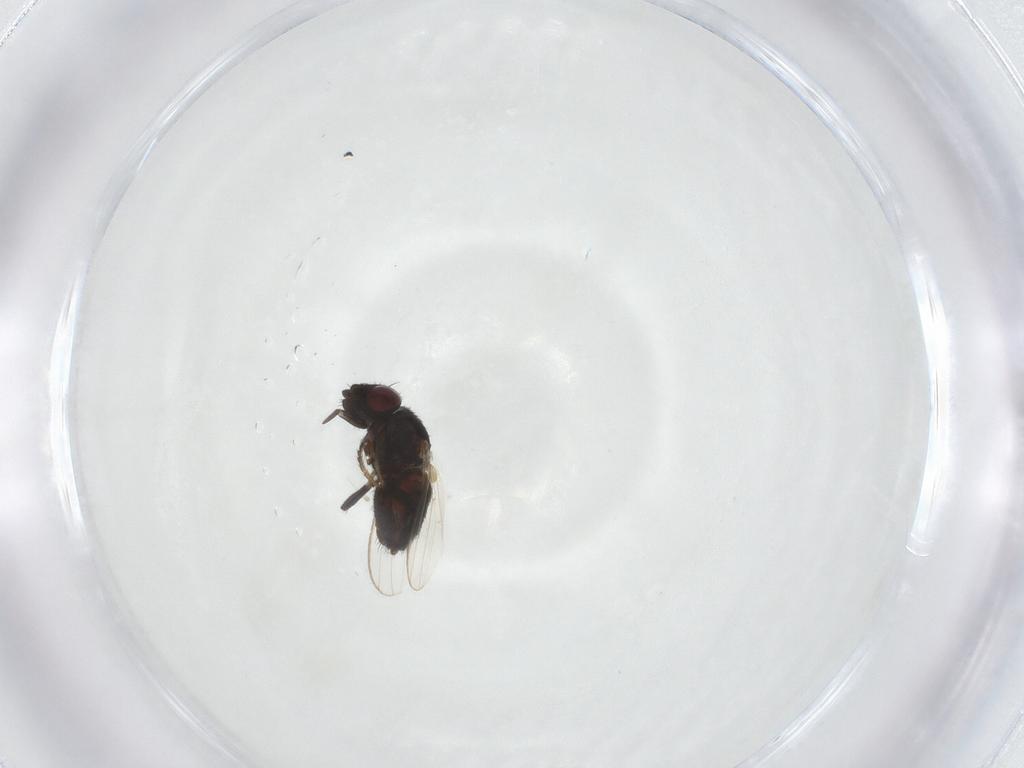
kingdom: Animalia
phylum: Arthropoda
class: Insecta
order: Diptera
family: Milichiidae
